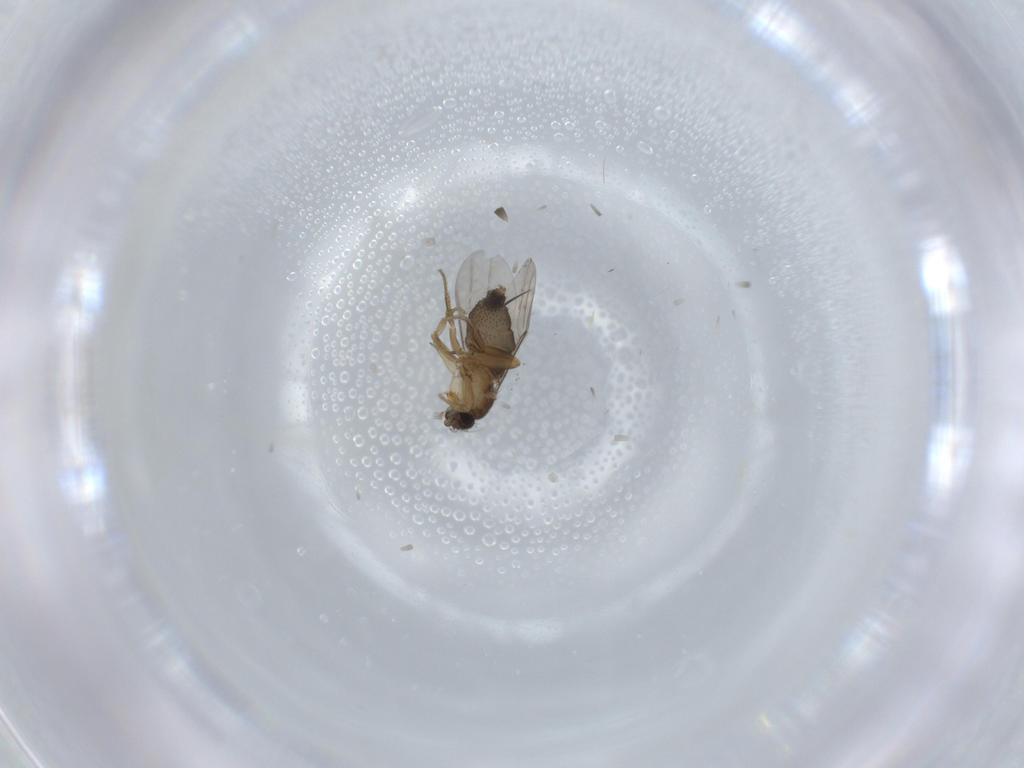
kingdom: Animalia
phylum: Arthropoda
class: Insecta
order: Diptera
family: Phoridae
